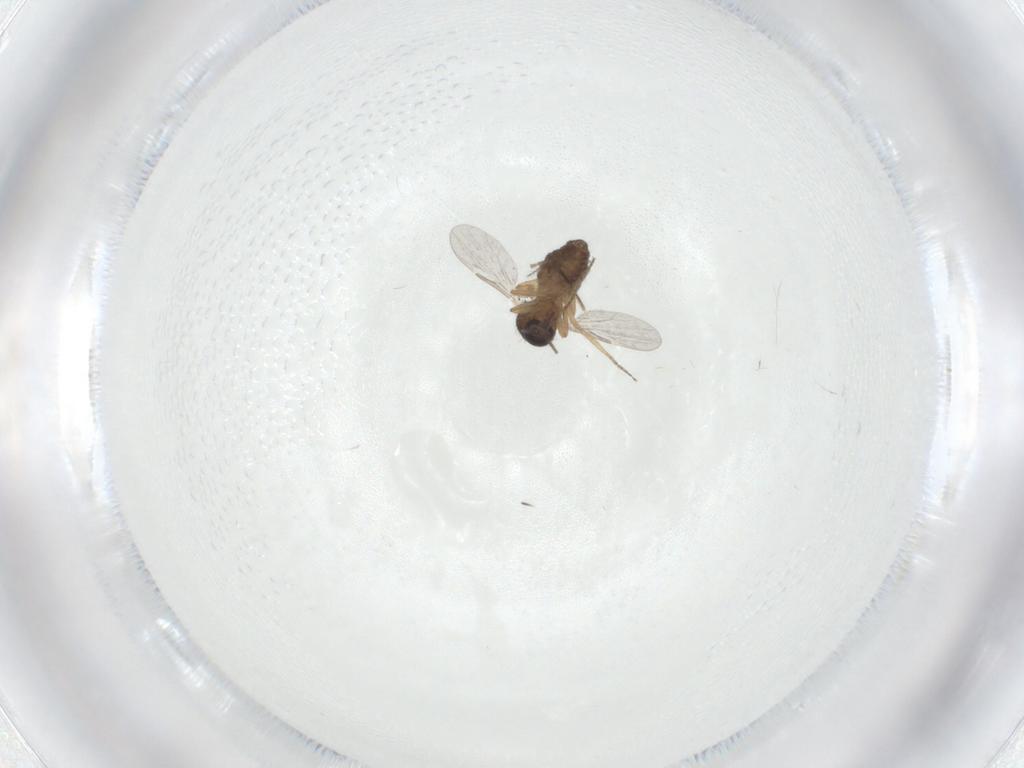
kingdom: Animalia
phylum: Arthropoda
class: Insecta
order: Diptera
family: Ceratopogonidae
